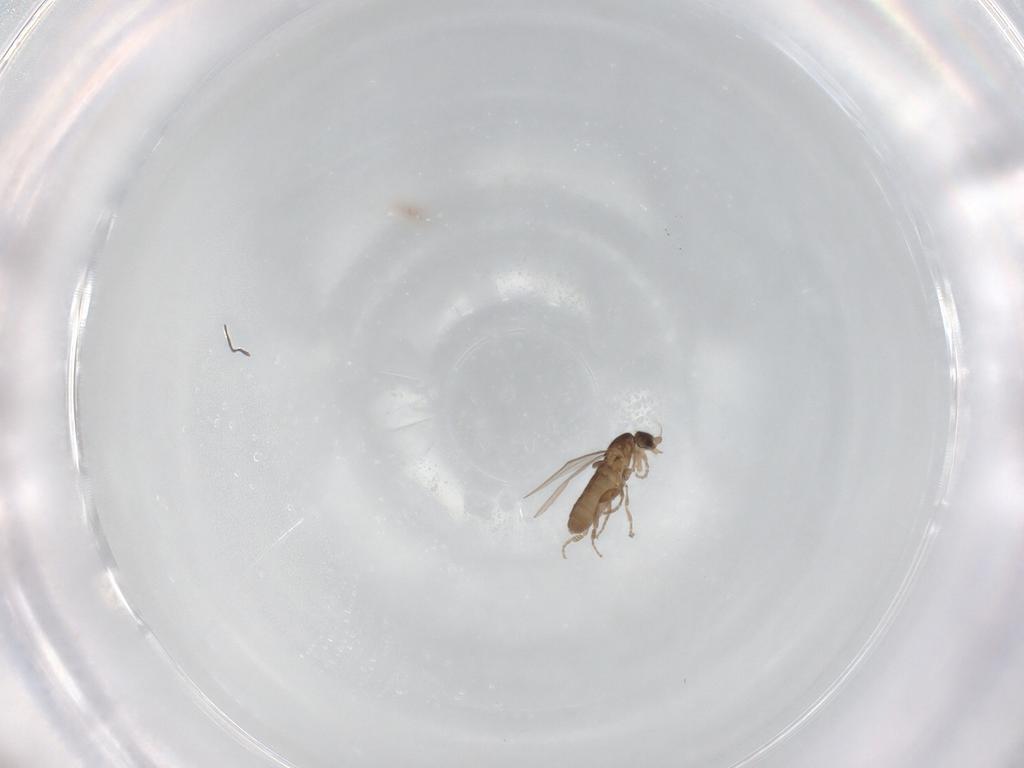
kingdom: Animalia
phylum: Arthropoda
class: Insecta
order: Diptera
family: Phoridae
